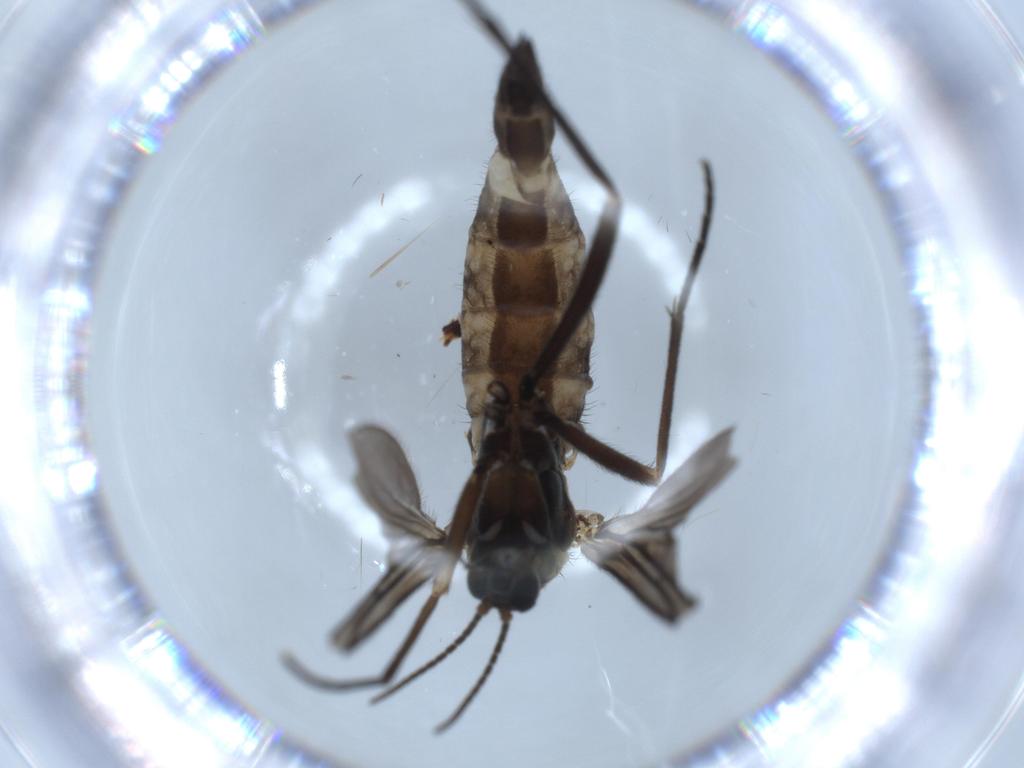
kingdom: Animalia
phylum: Arthropoda
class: Insecta
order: Diptera
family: Sciaridae
